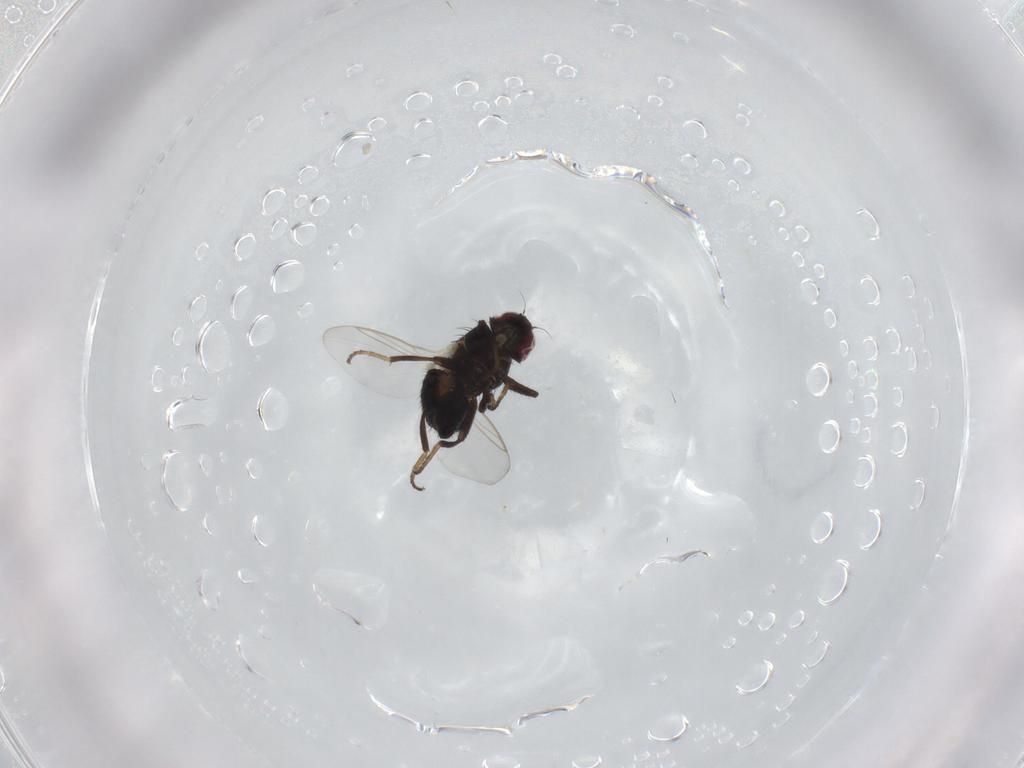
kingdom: Animalia
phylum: Arthropoda
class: Insecta
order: Diptera
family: Agromyzidae
